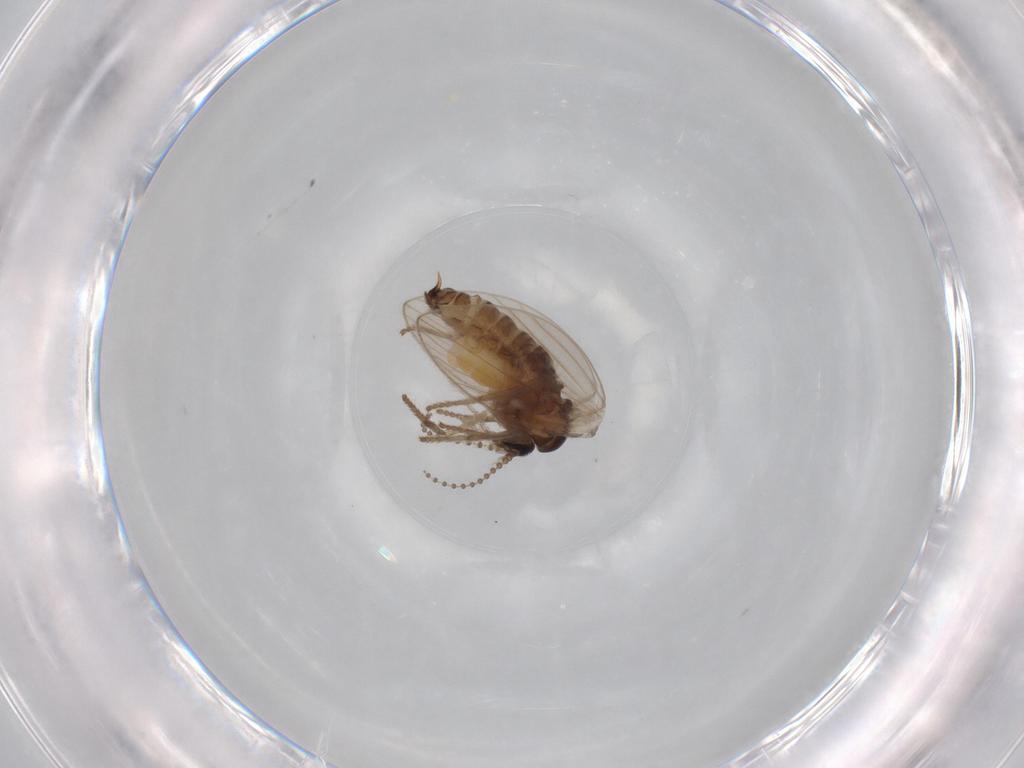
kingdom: Animalia
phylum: Arthropoda
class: Insecta
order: Diptera
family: Psychodidae
